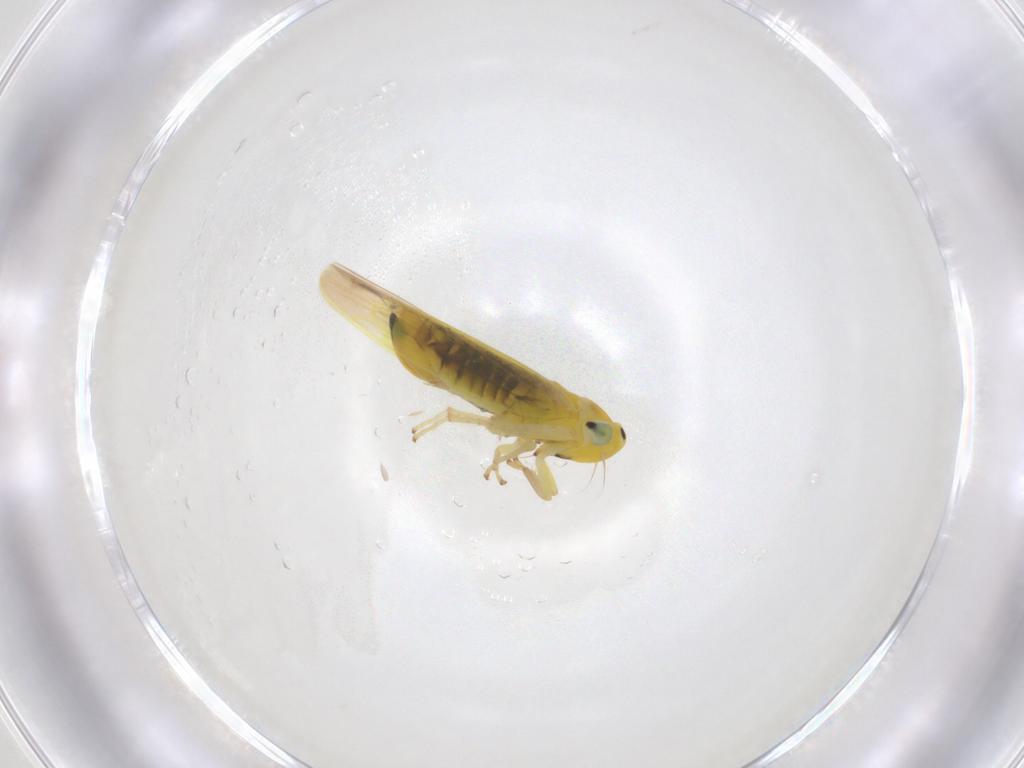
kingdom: Animalia
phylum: Arthropoda
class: Insecta
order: Hemiptera
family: Cicadellidae
